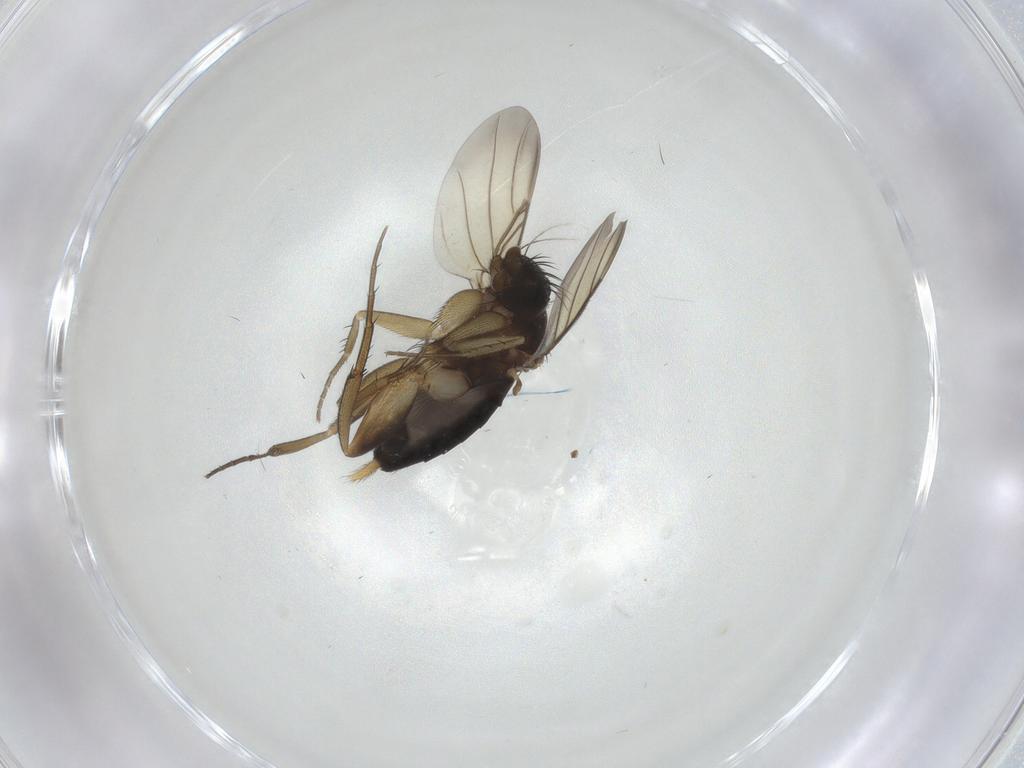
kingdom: Animalia
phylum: Arthropoda
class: Insecta
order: Diptera
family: Phoridae
